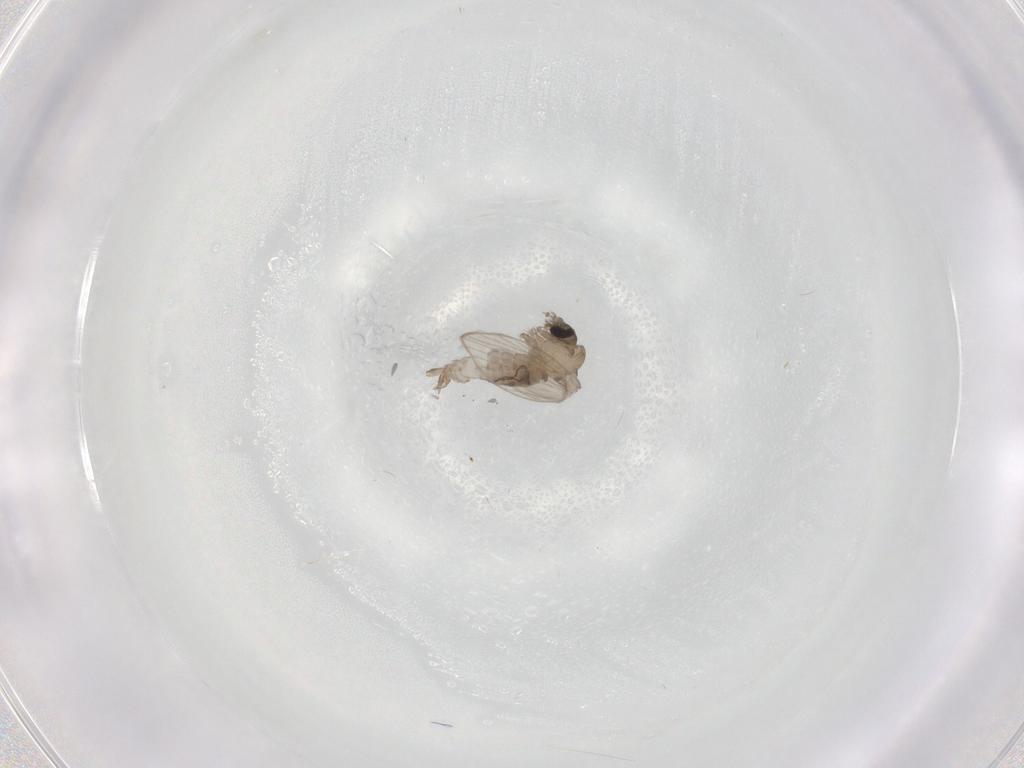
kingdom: Animalia
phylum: Arthropoda
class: Insecta
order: Diptera
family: Psychodidae
